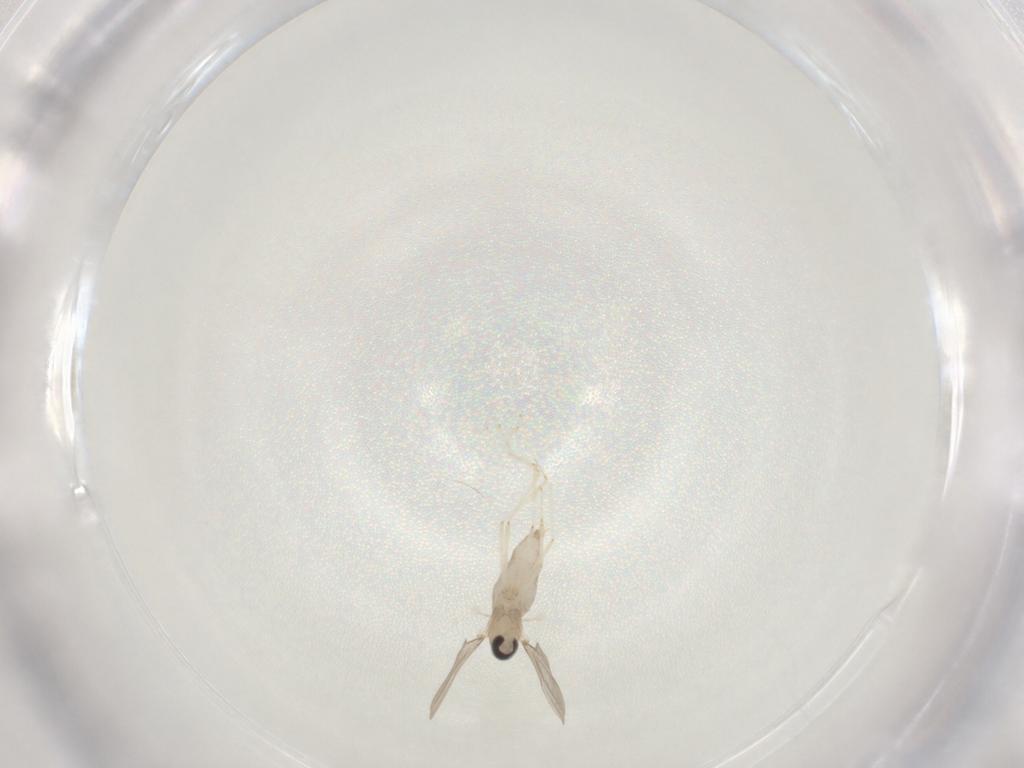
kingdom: Animalia
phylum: Arthropoda
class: Insecta
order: Diptera
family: Cecidomyiidae
